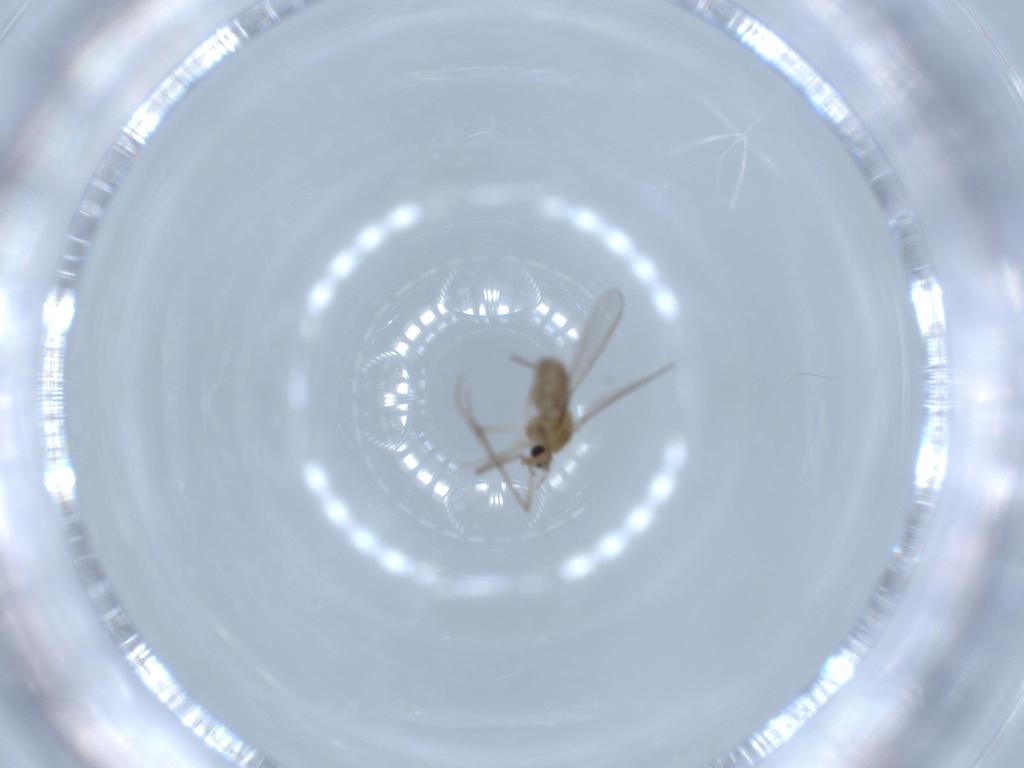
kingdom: Animalia
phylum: Arthropoda
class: Insecta
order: Diptera
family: Chironomidae
